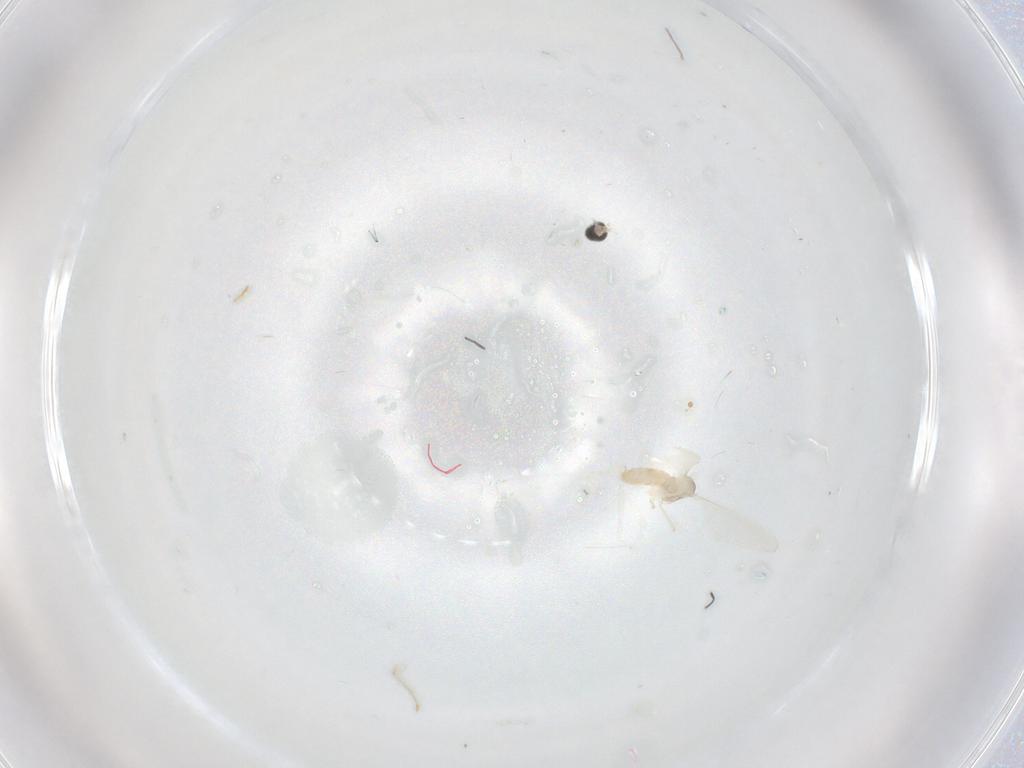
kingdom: Animalia
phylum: Arthropoda
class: Insecta
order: Diptera
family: Cecidomyiidae
